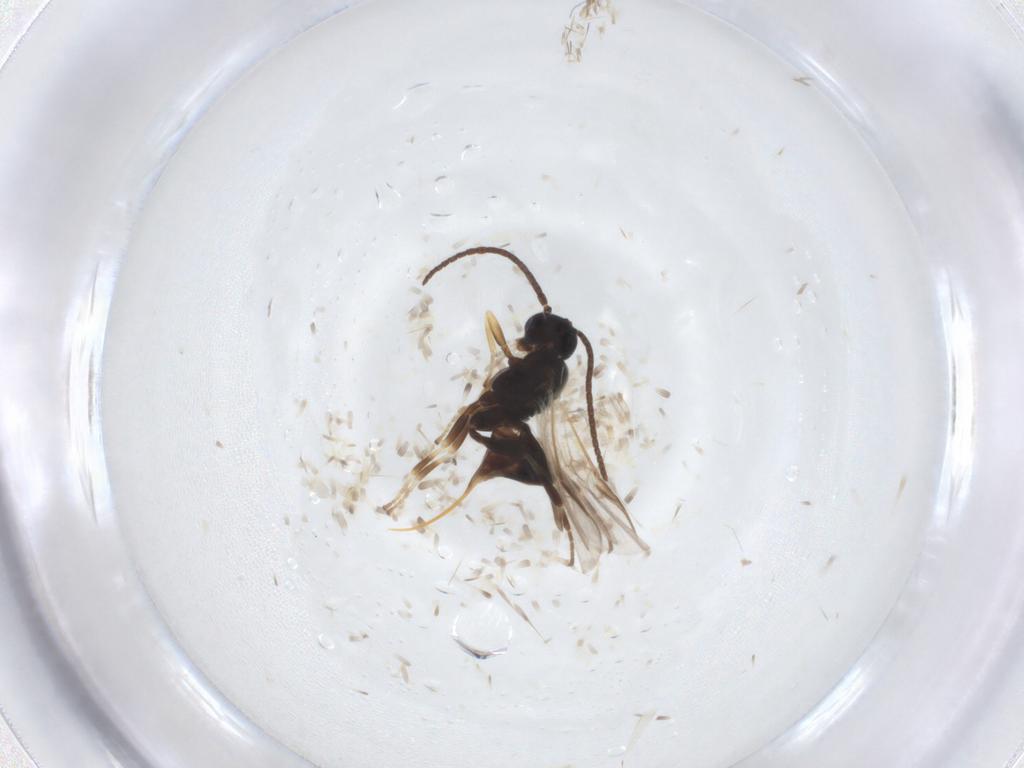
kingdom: Animalia
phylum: Arthropoda
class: Insecta
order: Hymenoptera
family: Braconidae
